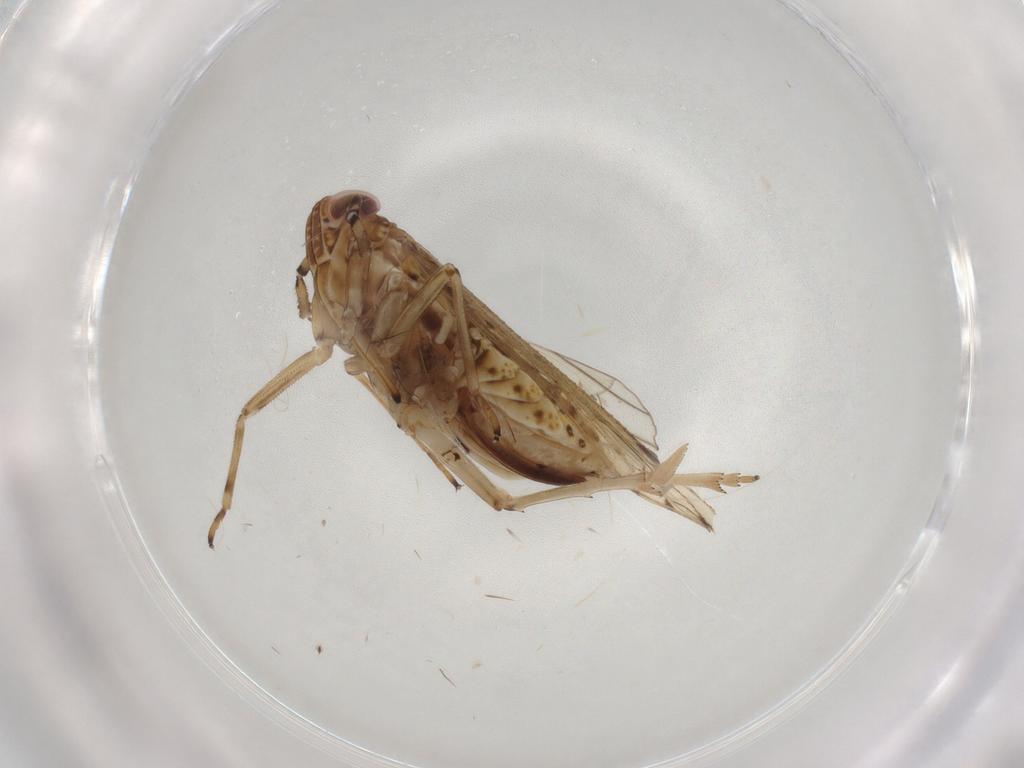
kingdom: Animalia
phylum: Arthropoda
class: Insecta
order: Hemiptera
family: Delphacidae
